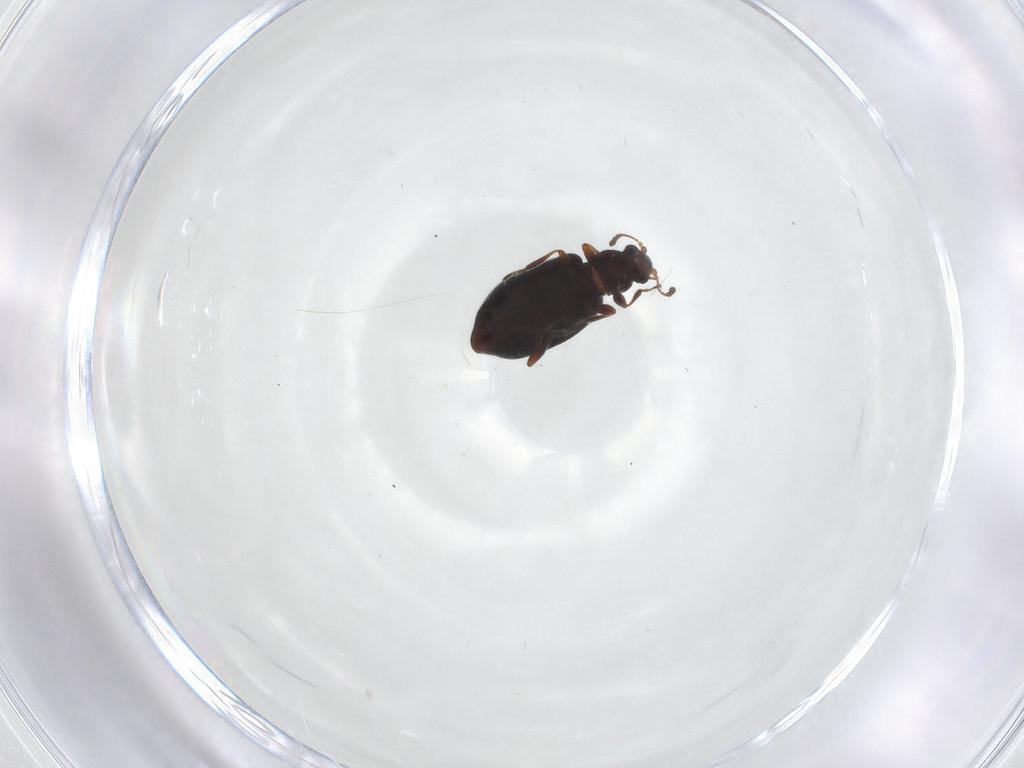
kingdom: Animalia
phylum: Arthropoda
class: Insecta
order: Coleoptera
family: Latridiidae
